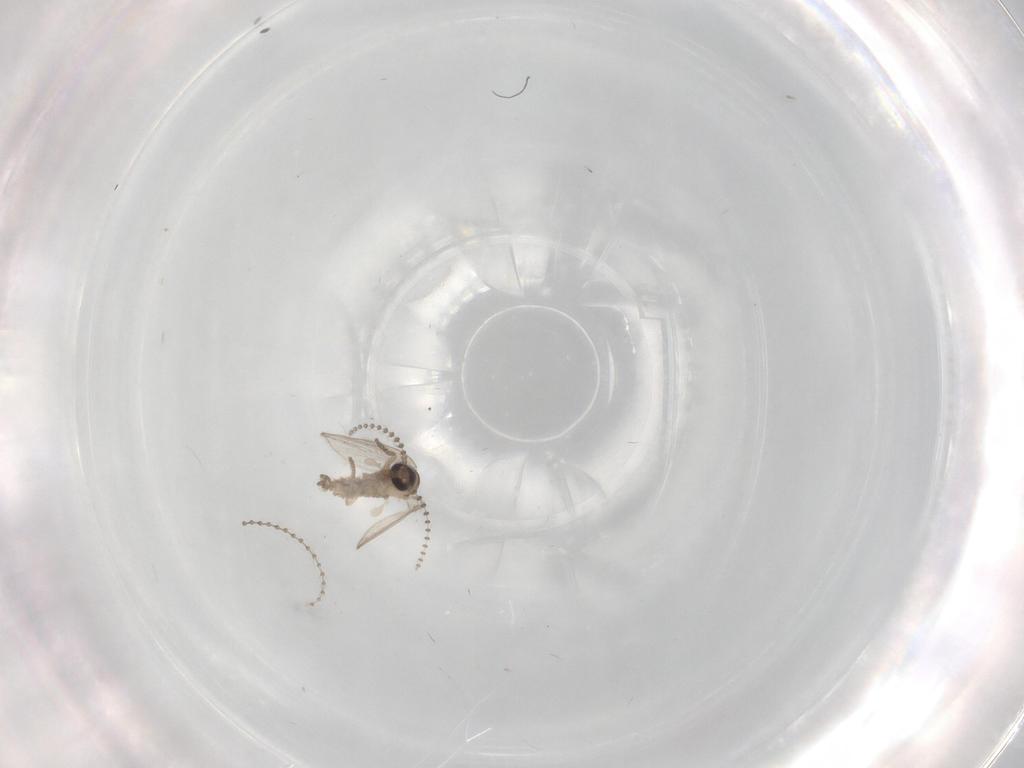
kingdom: Animalia
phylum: Arthropoda
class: Insecta
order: Diptera
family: Psychodidae
